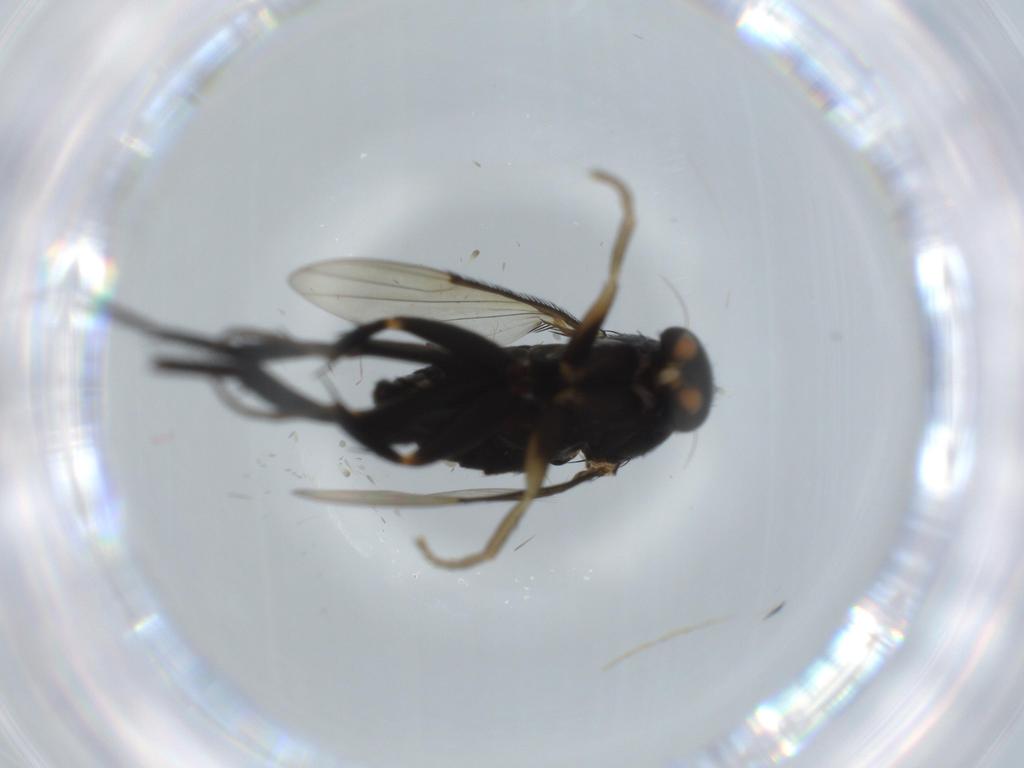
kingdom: Animalia
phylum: Arthropoda
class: Insecta
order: Diptera
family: Phoridae
